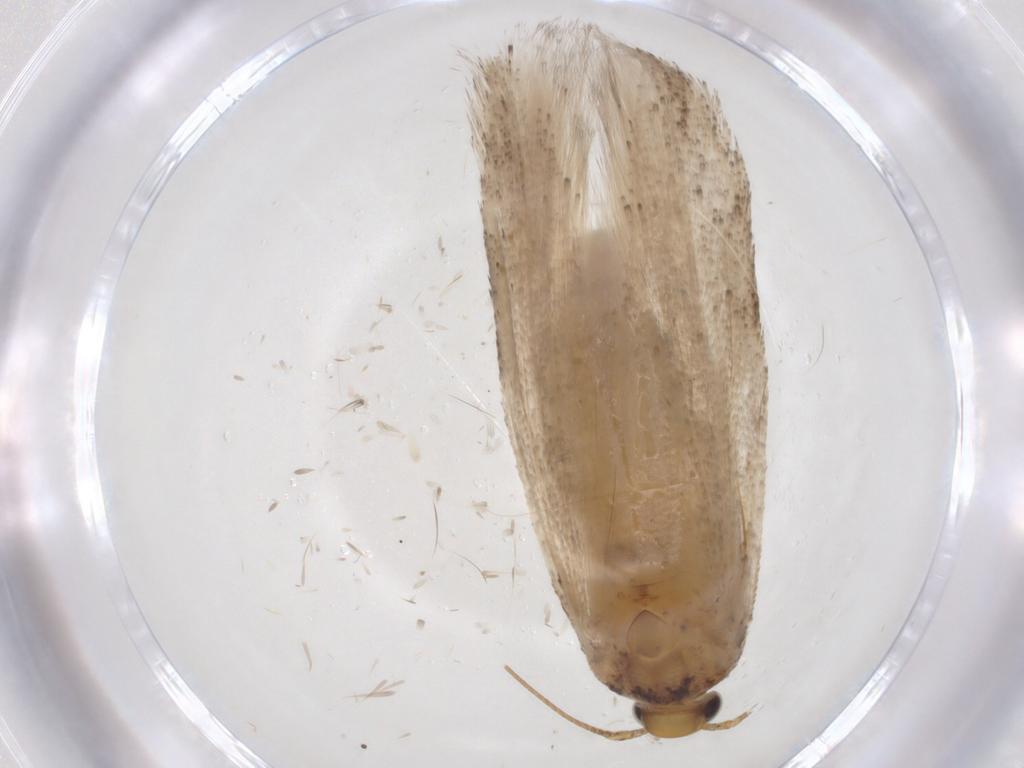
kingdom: Animalia
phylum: Arthropoda
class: Insecta
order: Lepidoptera
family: Gelechiidae
